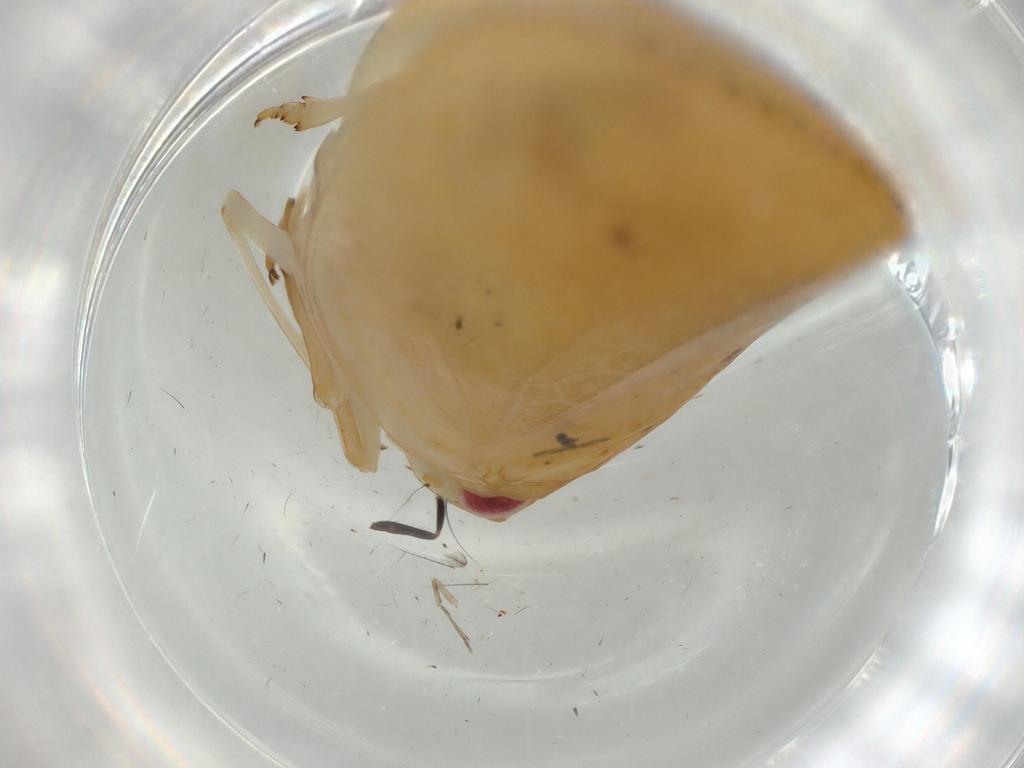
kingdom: Animalia
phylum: Arthropoda
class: Insecta
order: Hemiptera
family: Acanaloniidae
